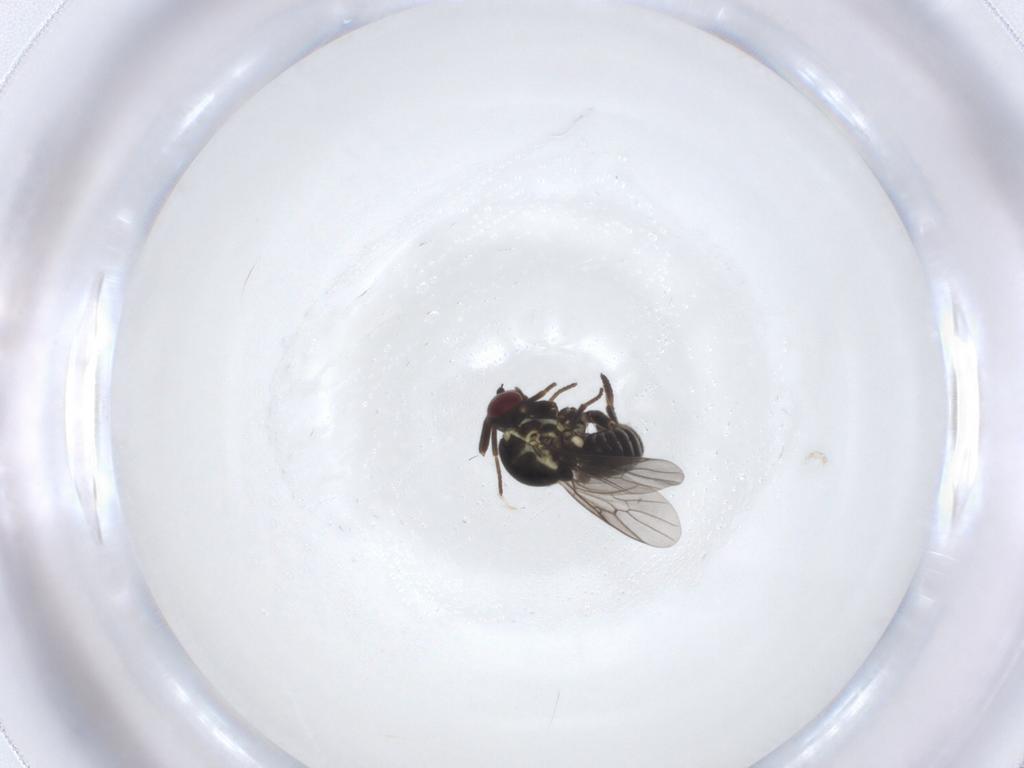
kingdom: Animalia
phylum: Arthropoda
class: Insecta
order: Diptera
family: Bombyliidae
